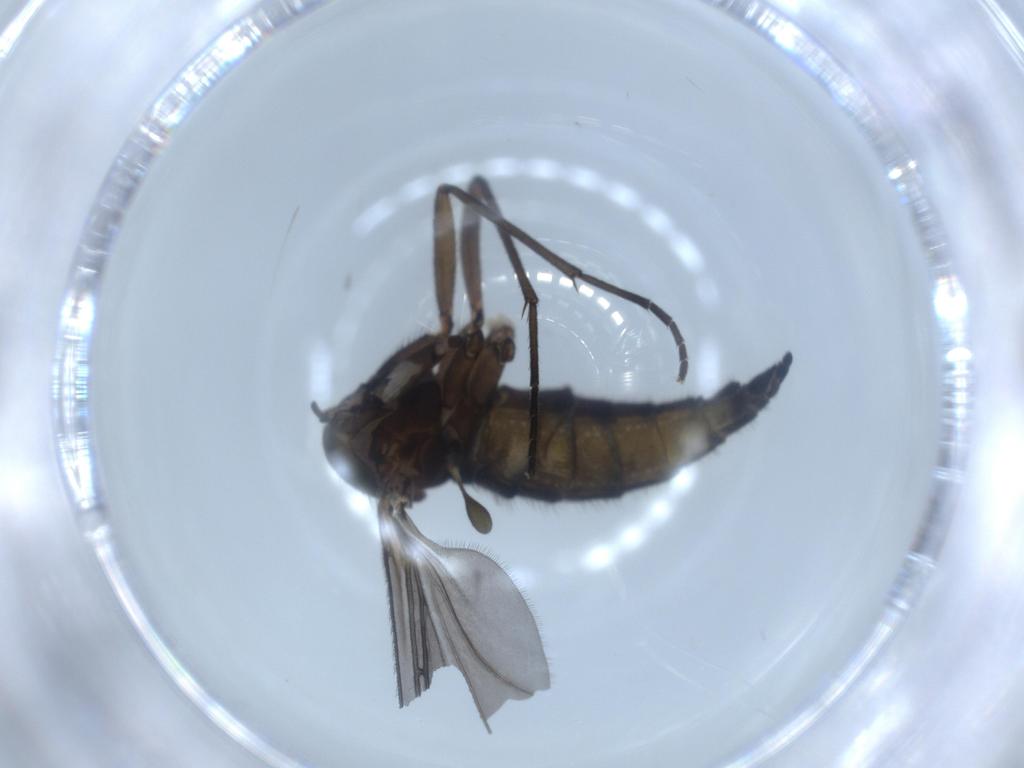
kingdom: Animalia
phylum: Arthropoda
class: Insecta
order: Diptera
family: Sciaridae
